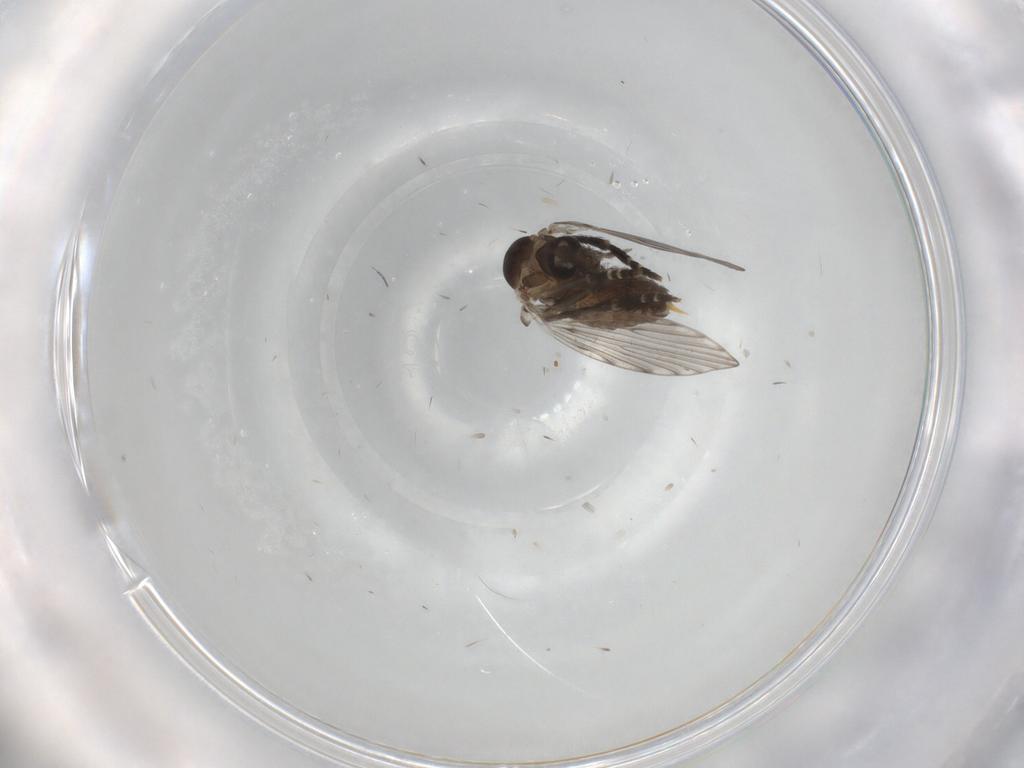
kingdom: Animalia
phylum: Arthropoda
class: Insecta
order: Diptera
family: Psychodidae
